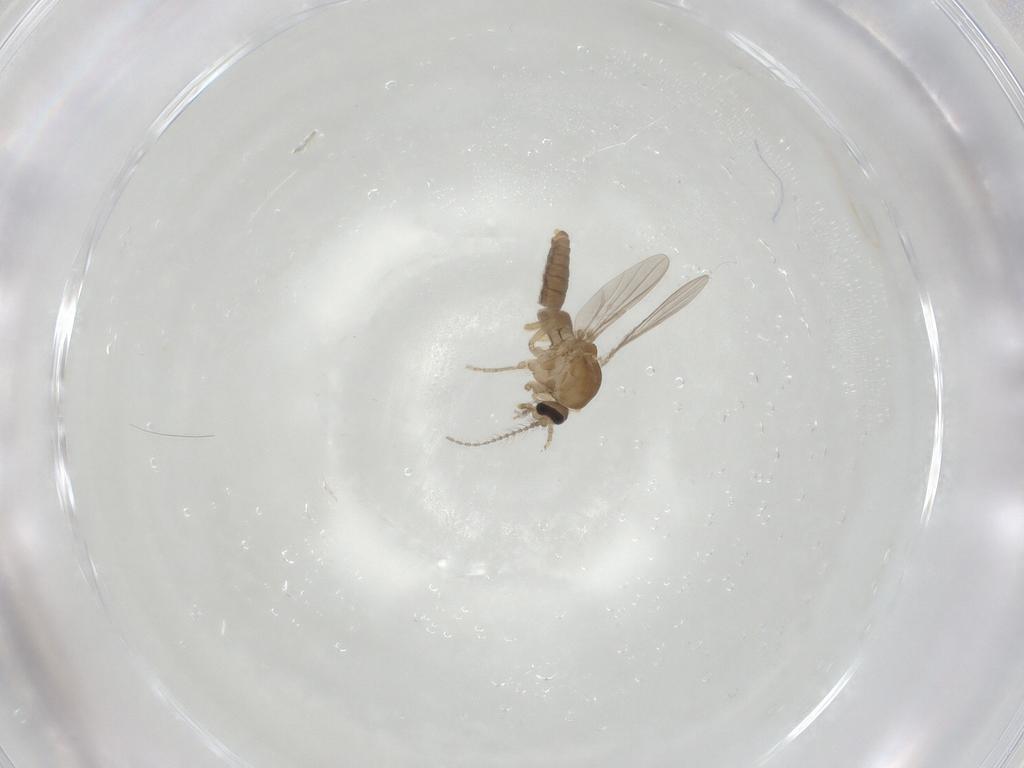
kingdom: Animalia
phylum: Arthropoda
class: Insecta
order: Diptera
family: Ceratopogonidae
